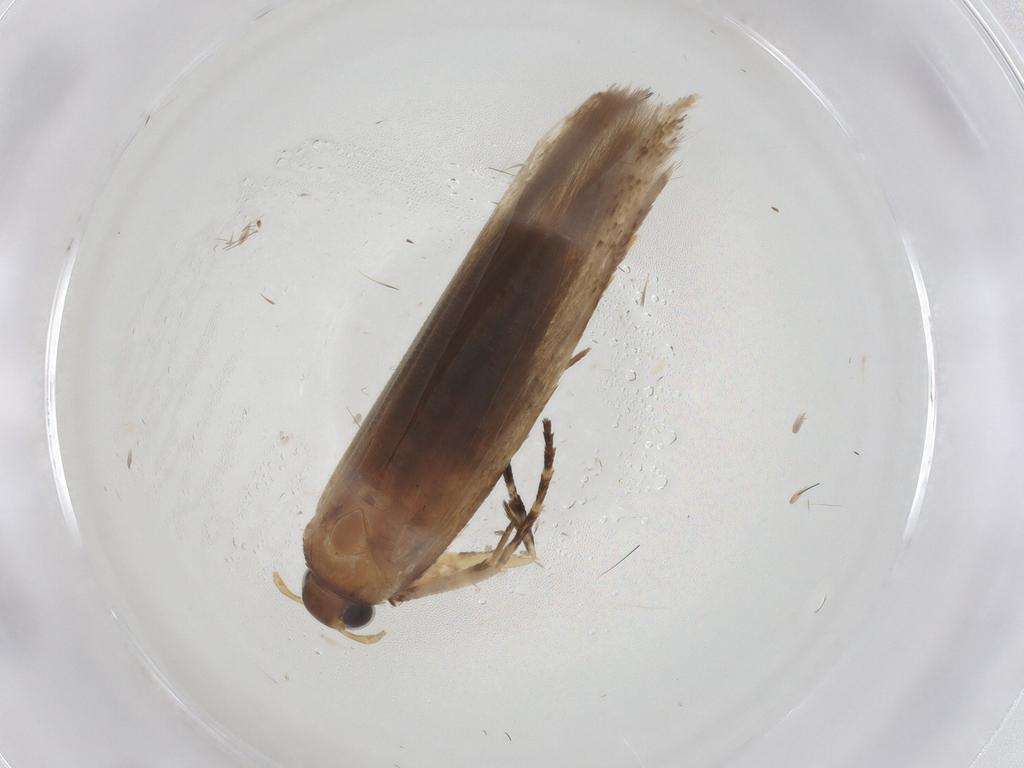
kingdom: Animalia
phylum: Arthropoda
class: Insecta
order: Lepidoptera
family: Gelechiidae
